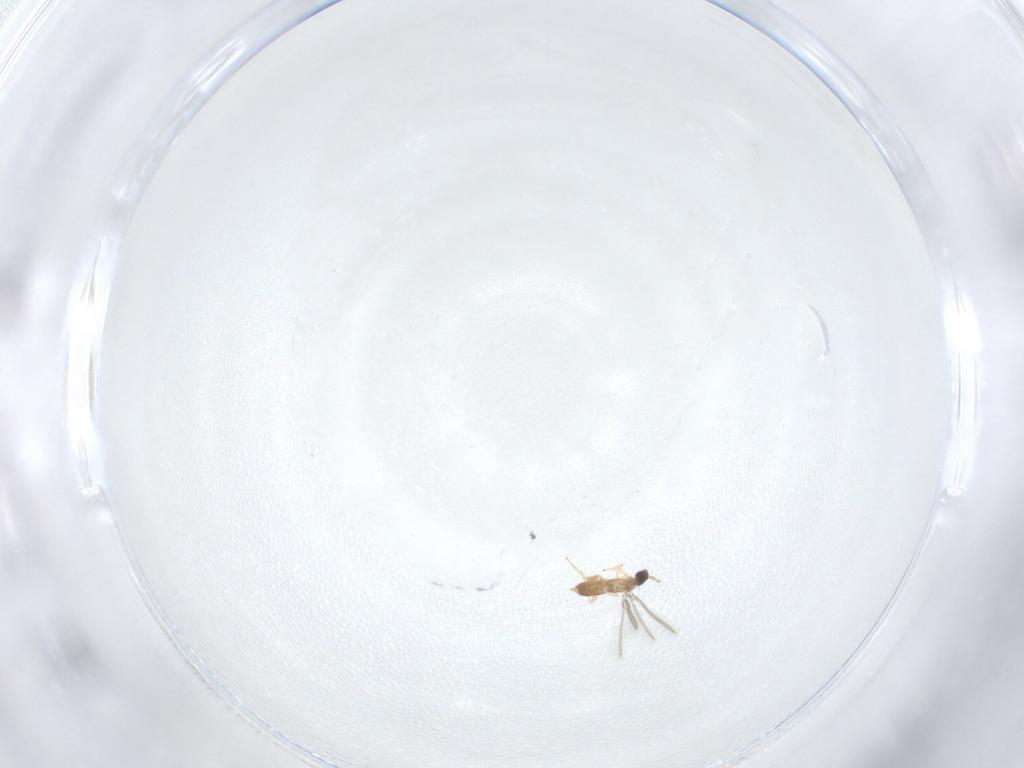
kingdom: Animalia
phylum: Arthropoda
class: Insecta
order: Hymenoptera
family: Mymaridae
